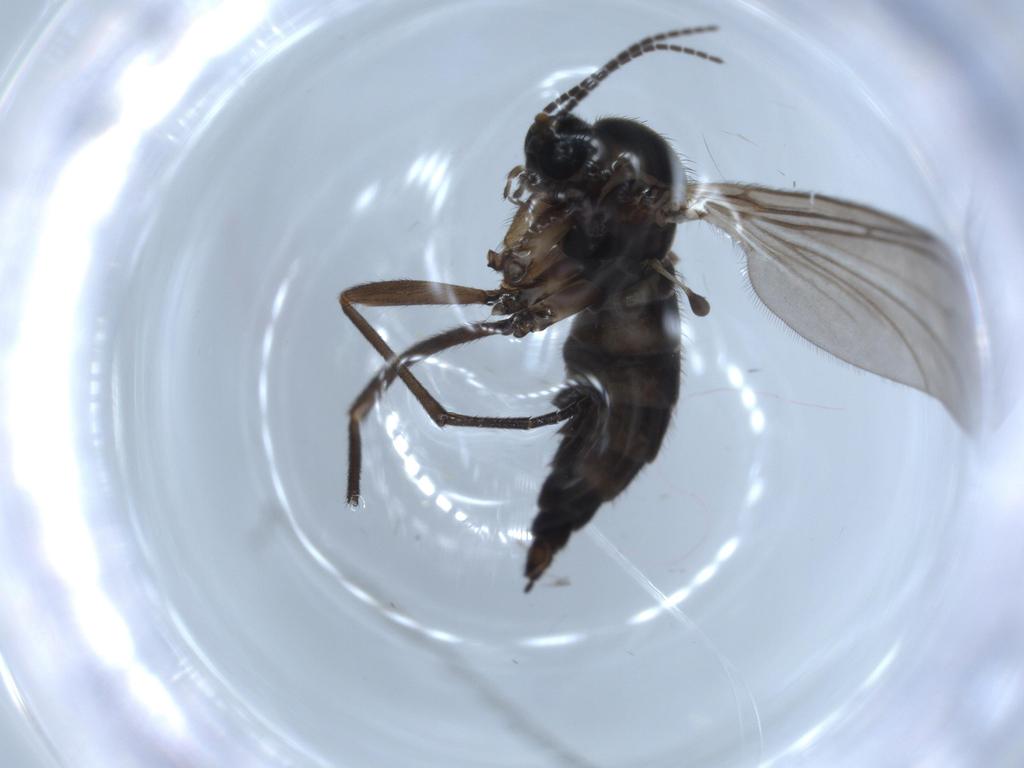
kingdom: Animalia
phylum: Arthropoda
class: Insecta
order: Diptera
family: Sciaridae
